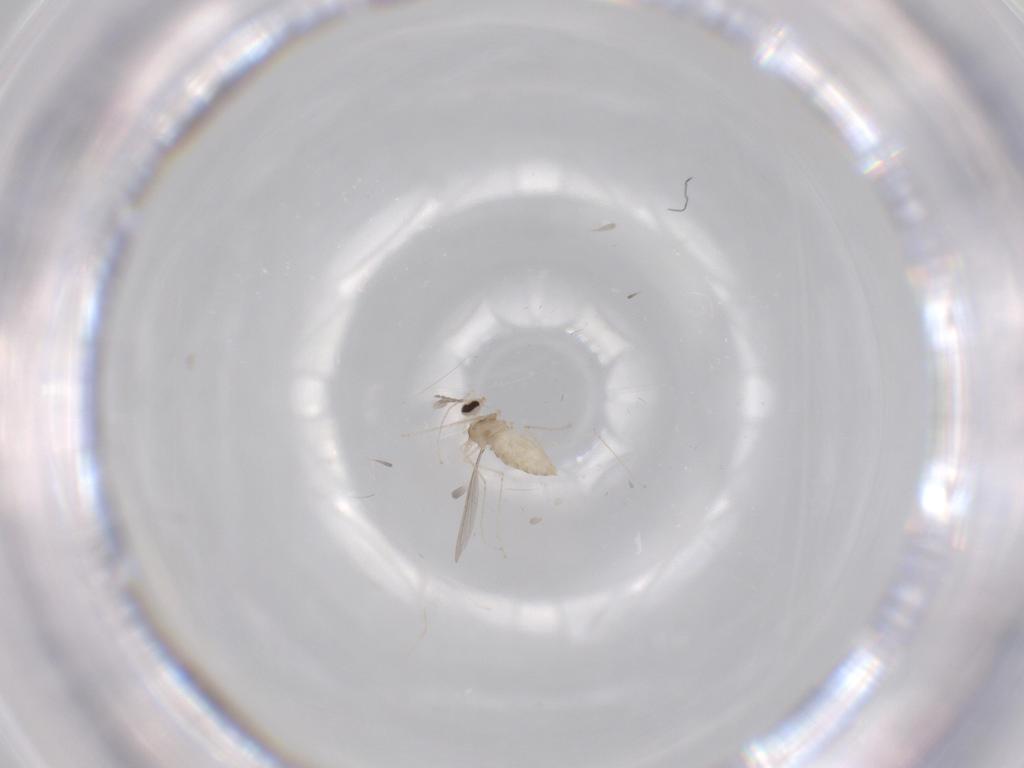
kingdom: Animalia
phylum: Arthropoda
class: Insecta
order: Diptera
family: Cecidomyiidae
